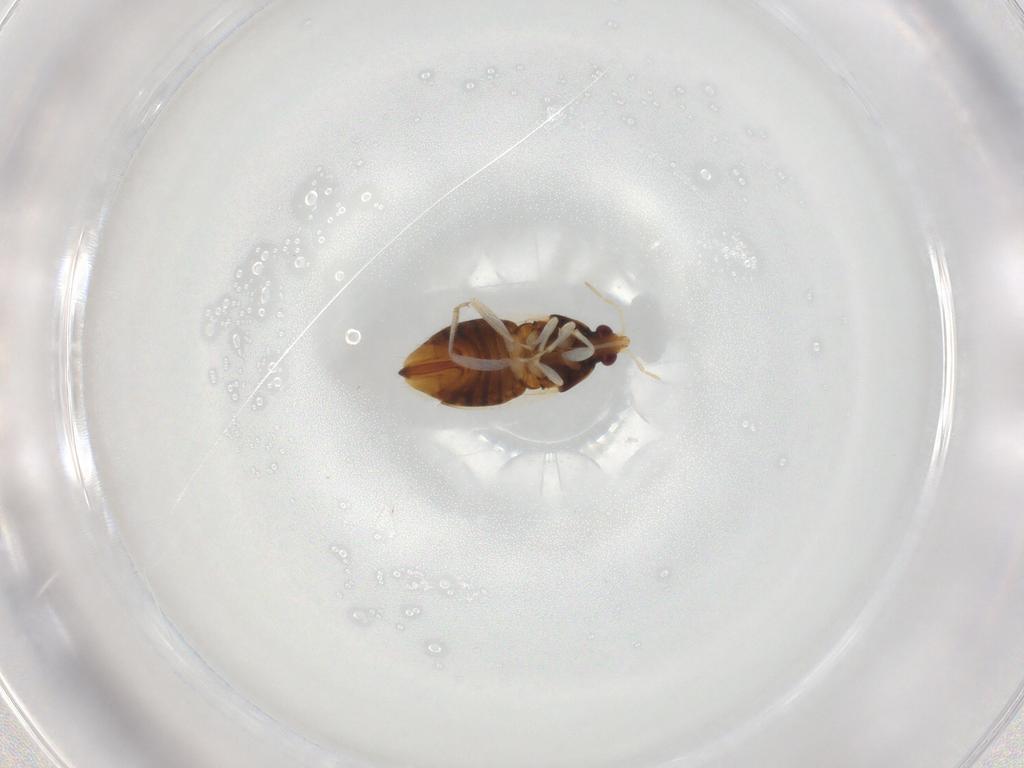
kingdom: Animalia
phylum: Arthropoda
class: Insecta
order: Hemiptera
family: Anthocoridae
